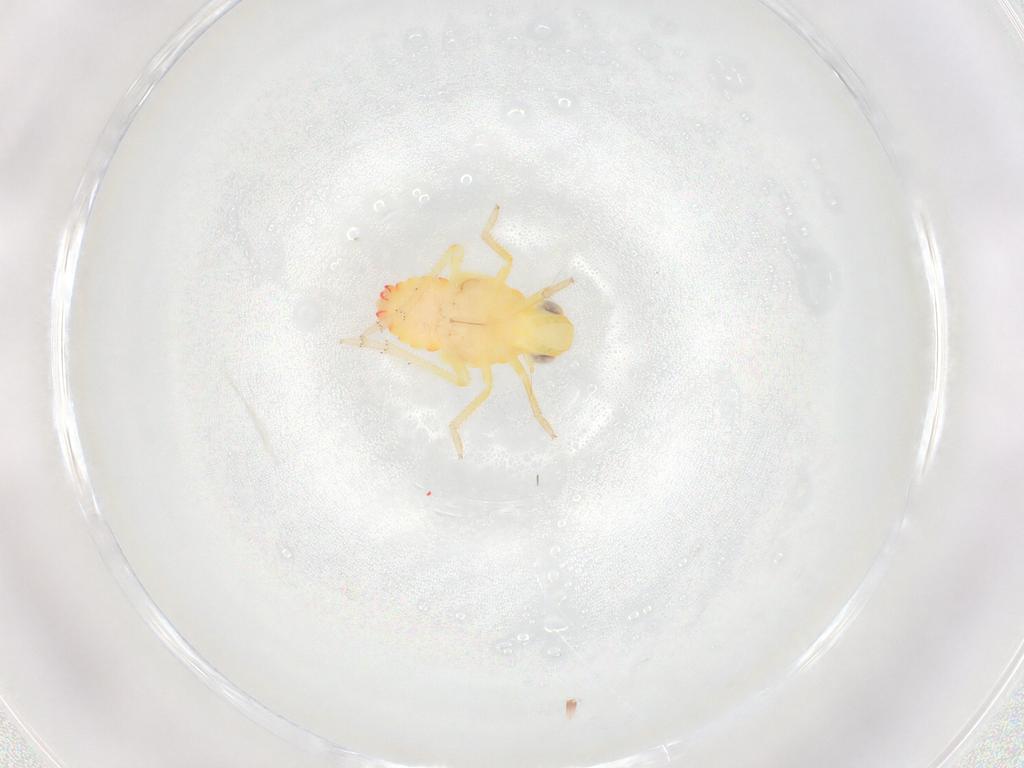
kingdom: Animalia
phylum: Arthropoda
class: Insecta
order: Hemiptera
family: Tropiduchidae
